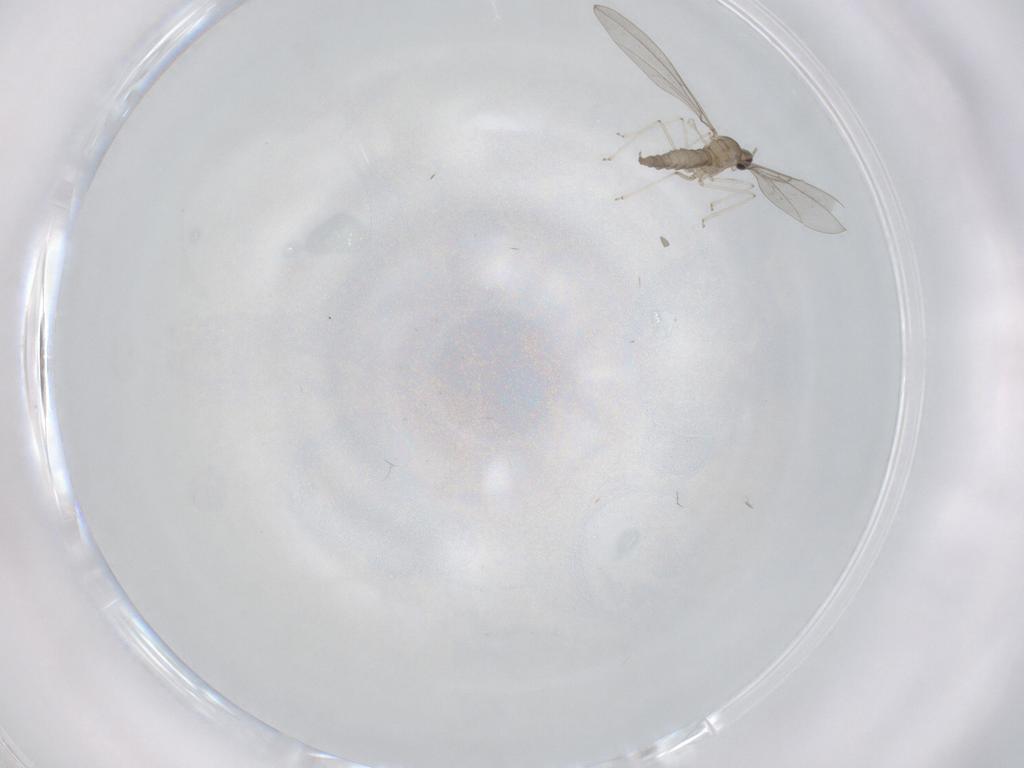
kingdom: Animalia
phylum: Arthropoda
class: Insecta
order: Diptera
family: Cecidomyiidae
